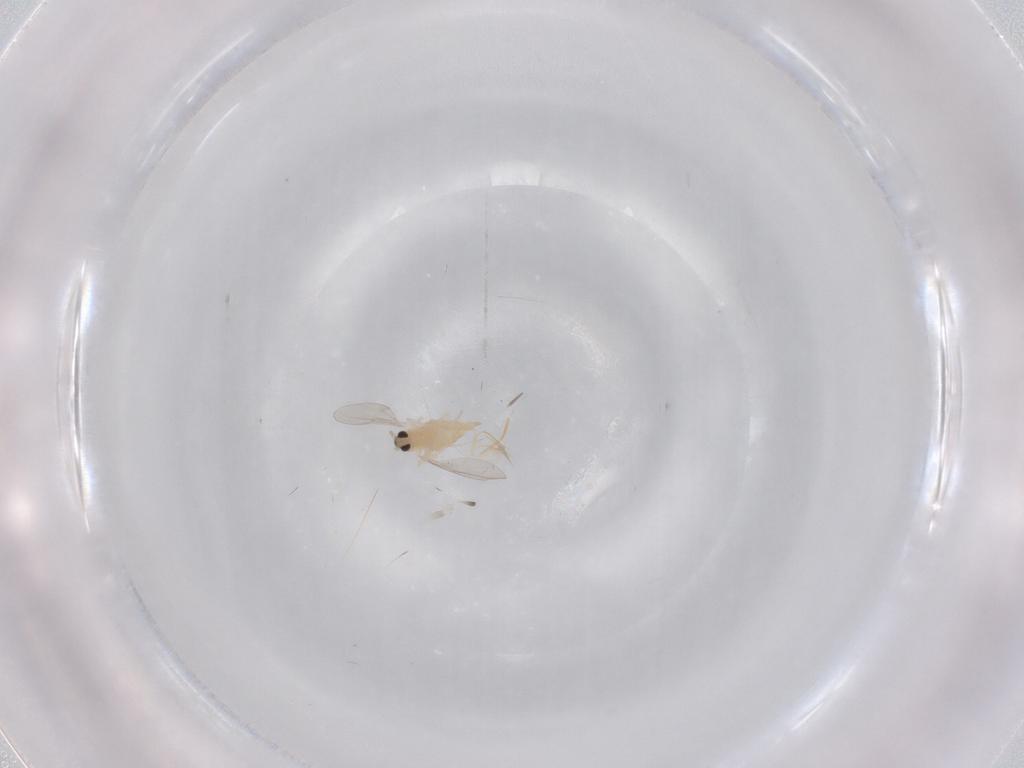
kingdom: Animalia
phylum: Arthropoda
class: Insecta
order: Diptera
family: Cecidomyiidae
